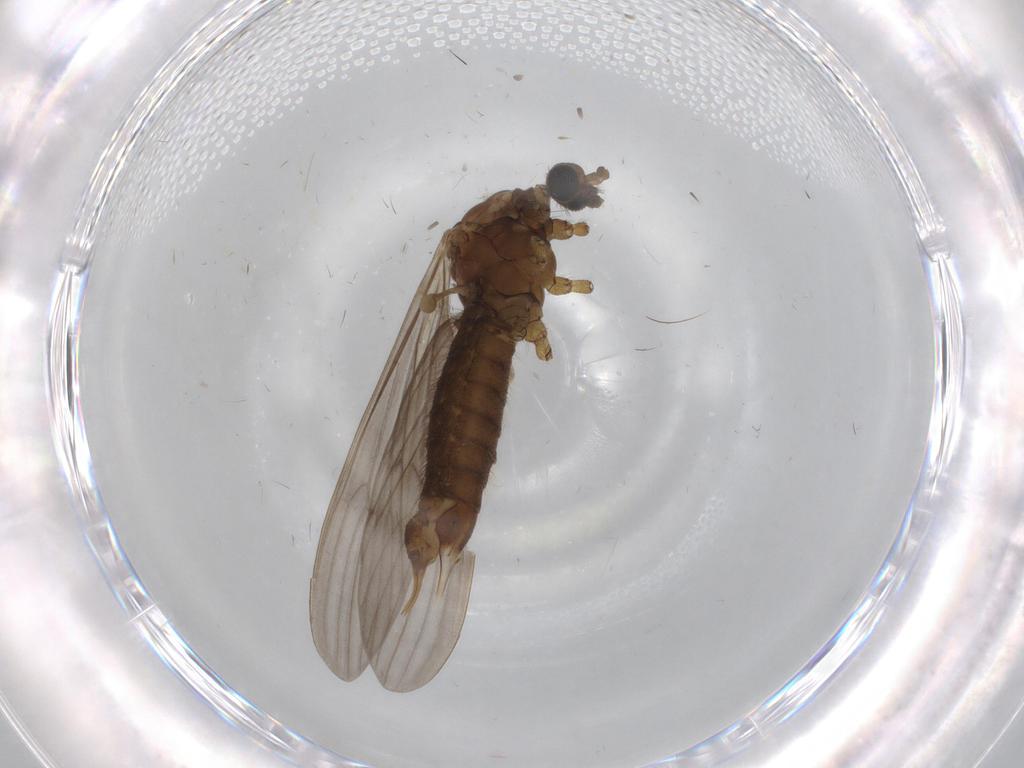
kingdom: Animalia
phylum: Arthropoda
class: Insecta
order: Diptera
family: Limoniidae
